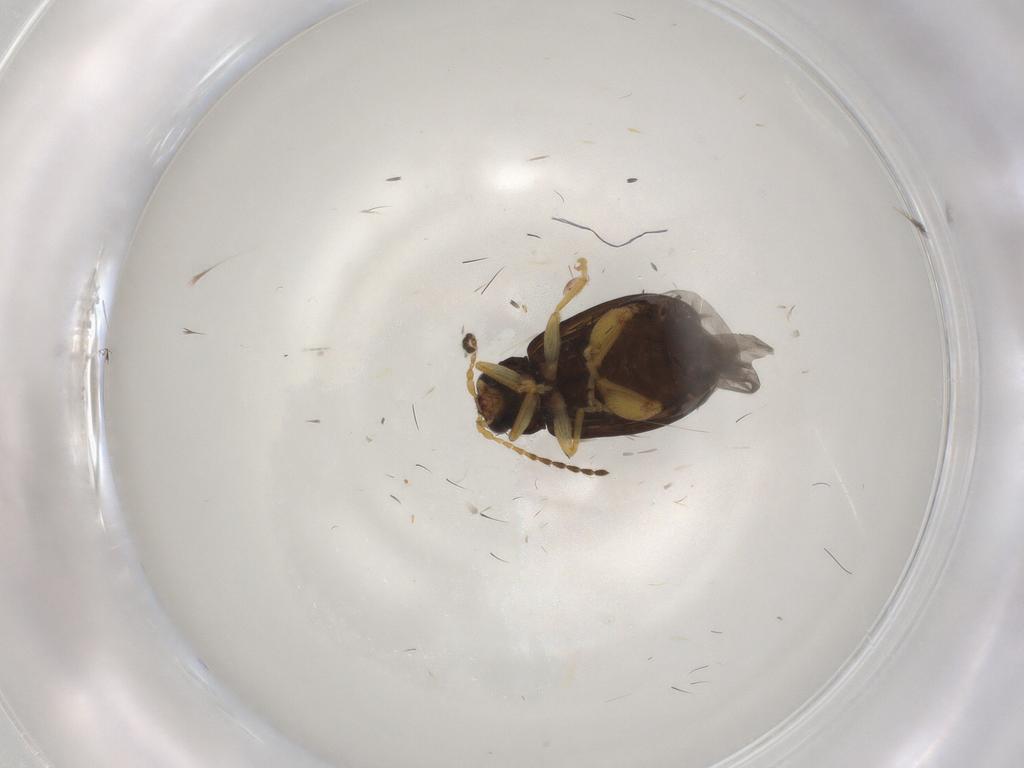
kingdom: Animalia
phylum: Arthropoda
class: Insecta
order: Coleoptera
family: Chrysomelidae
